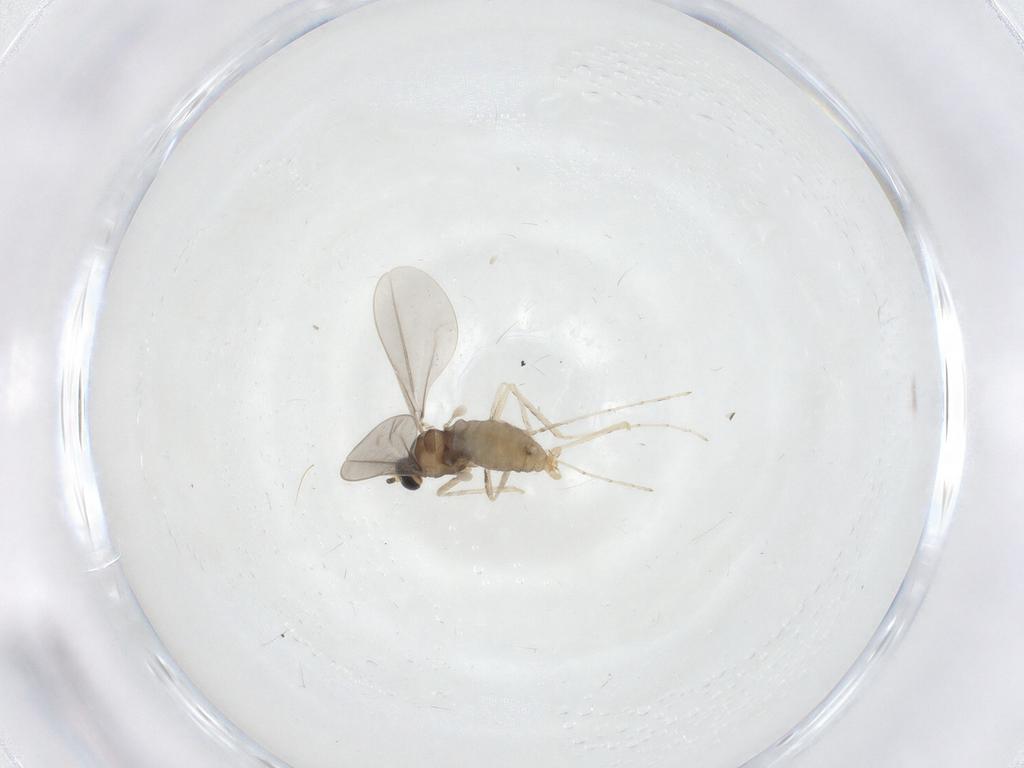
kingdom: Animalia
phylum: Arthropoda
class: Insecta
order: Diptera
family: Cecidomyiidae
